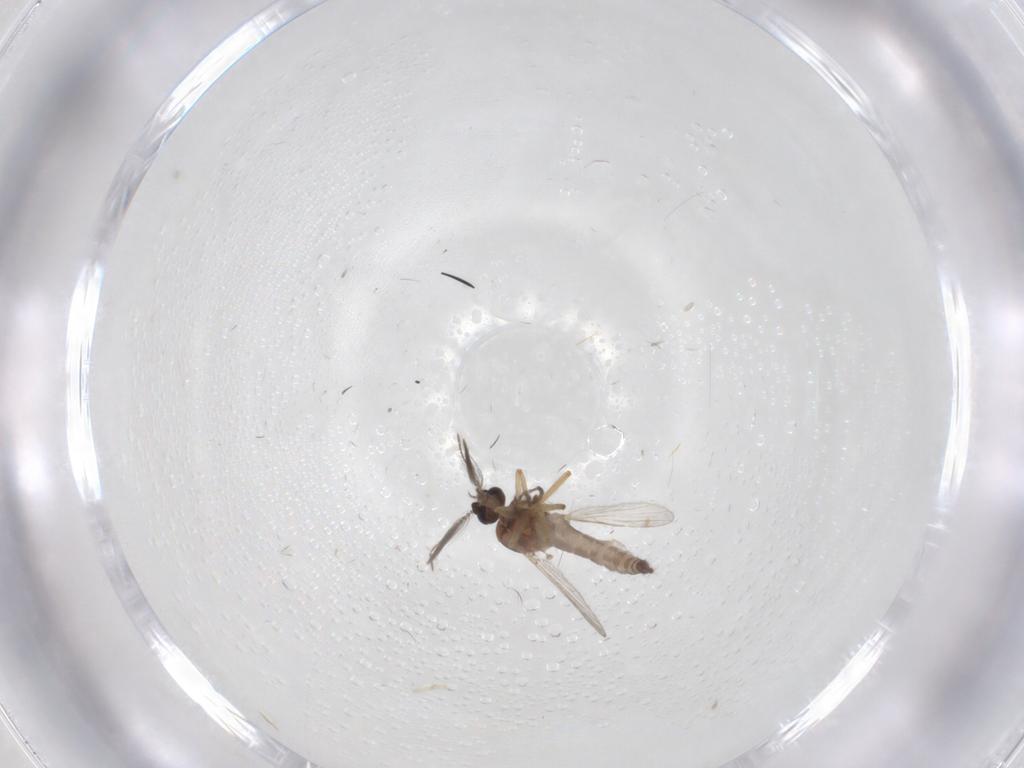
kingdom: Animalia
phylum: Arthropoda
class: Insecta
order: Diptera
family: Ceratopogonidae
